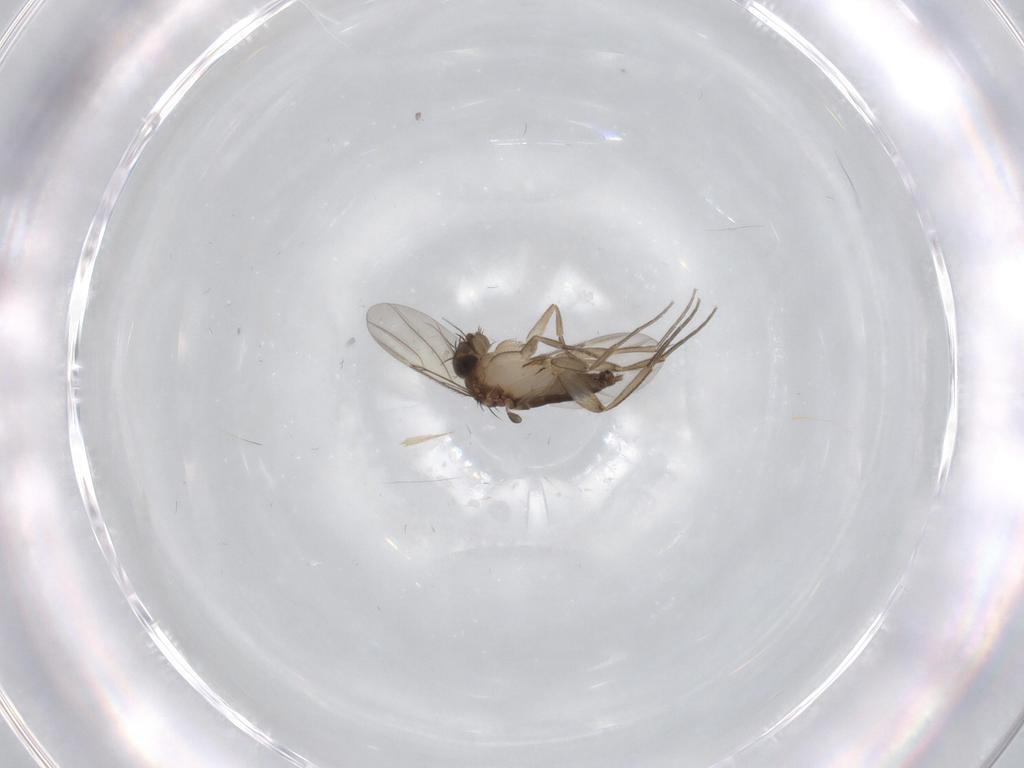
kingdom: Animalia
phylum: Arthropoda
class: Insecta
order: Diptera
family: Phoridae
